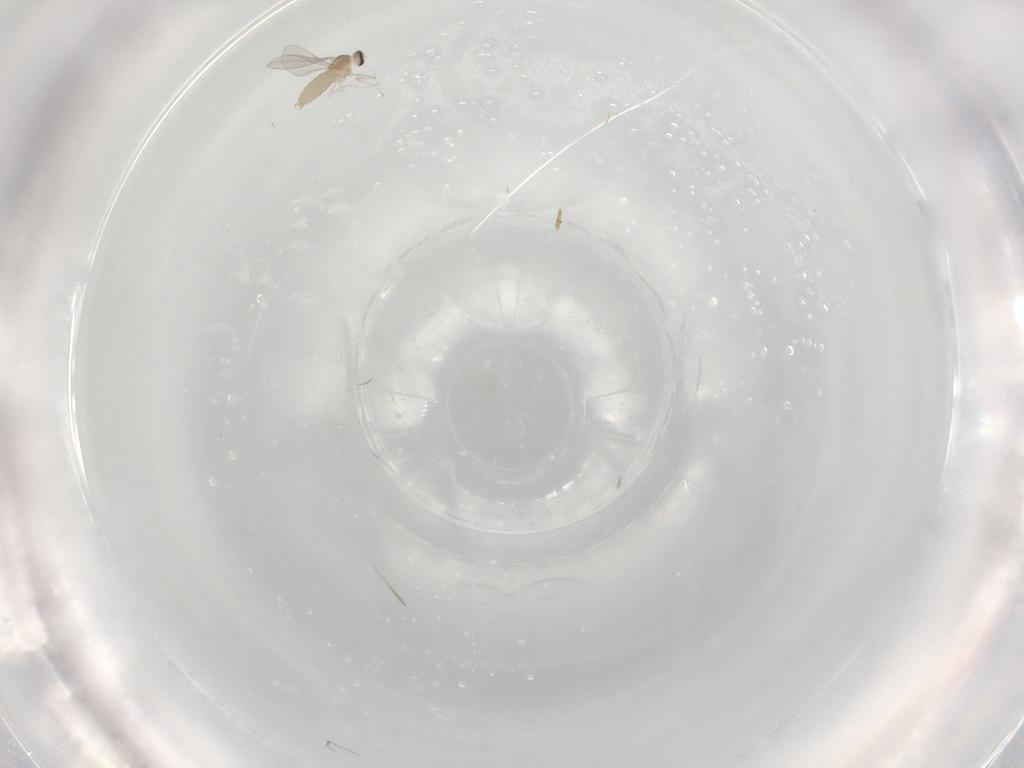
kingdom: Animalia
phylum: Arthropoda
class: Insecta
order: Diptera
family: Cecidomyiidae
